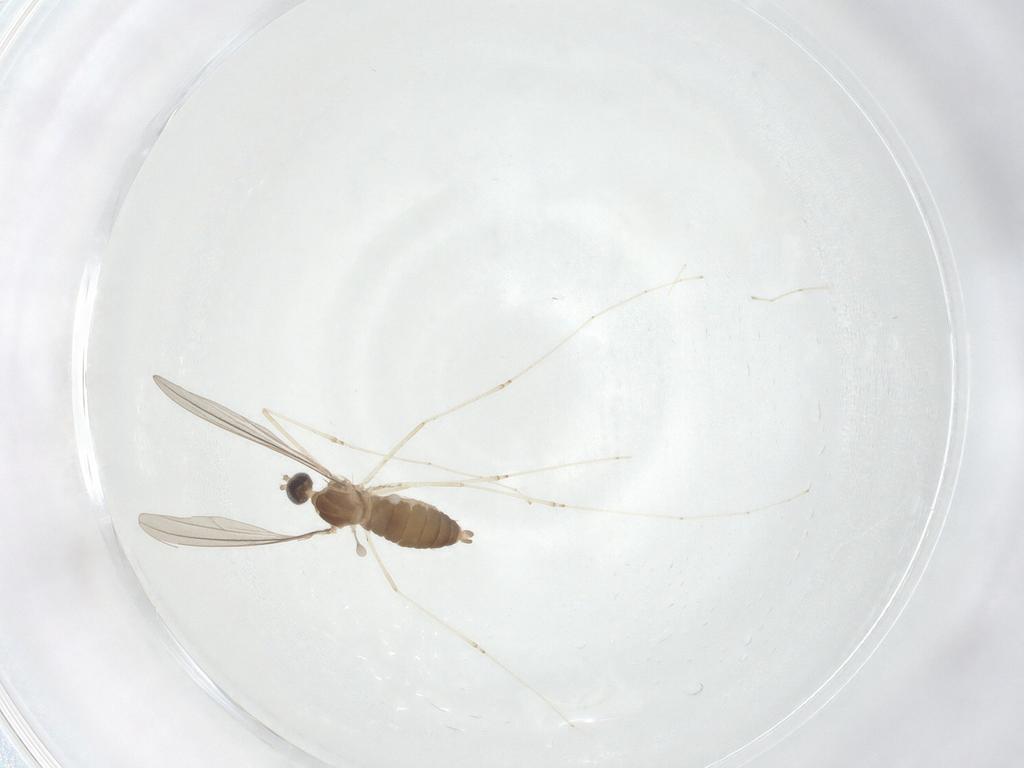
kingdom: Animalia
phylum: Arthropoda
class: Insecta
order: Diptera
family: Cecidomyiidae
